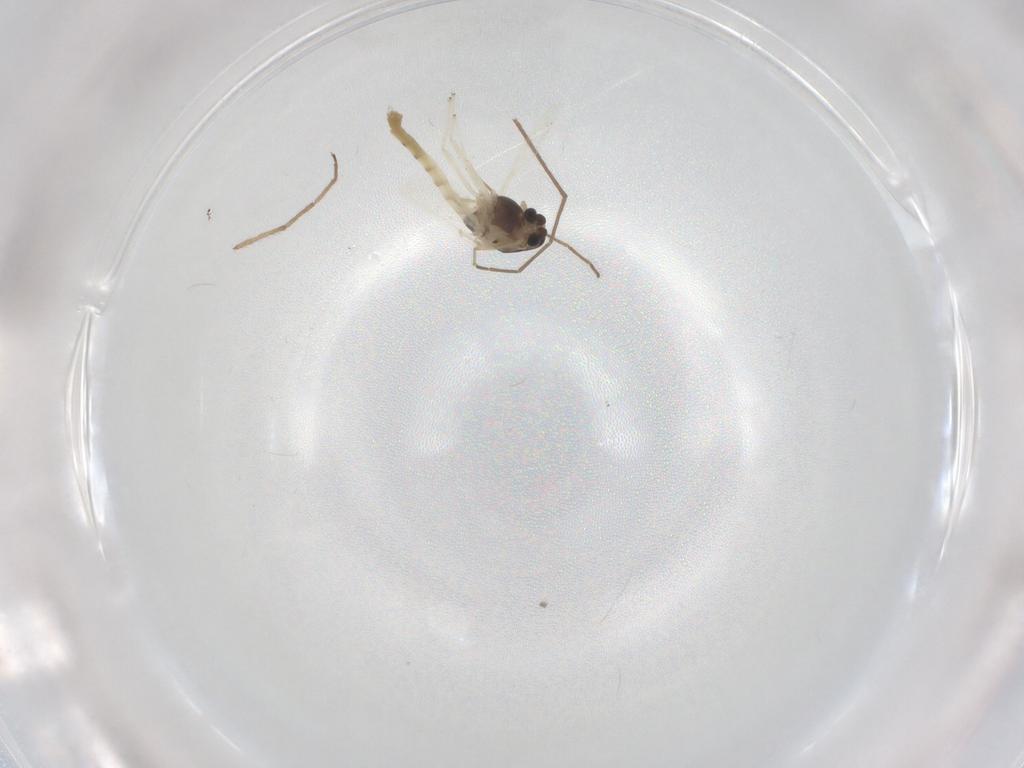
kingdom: Animalia
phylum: Arthropoda
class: Insecta
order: Diptera
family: Chironomidae
